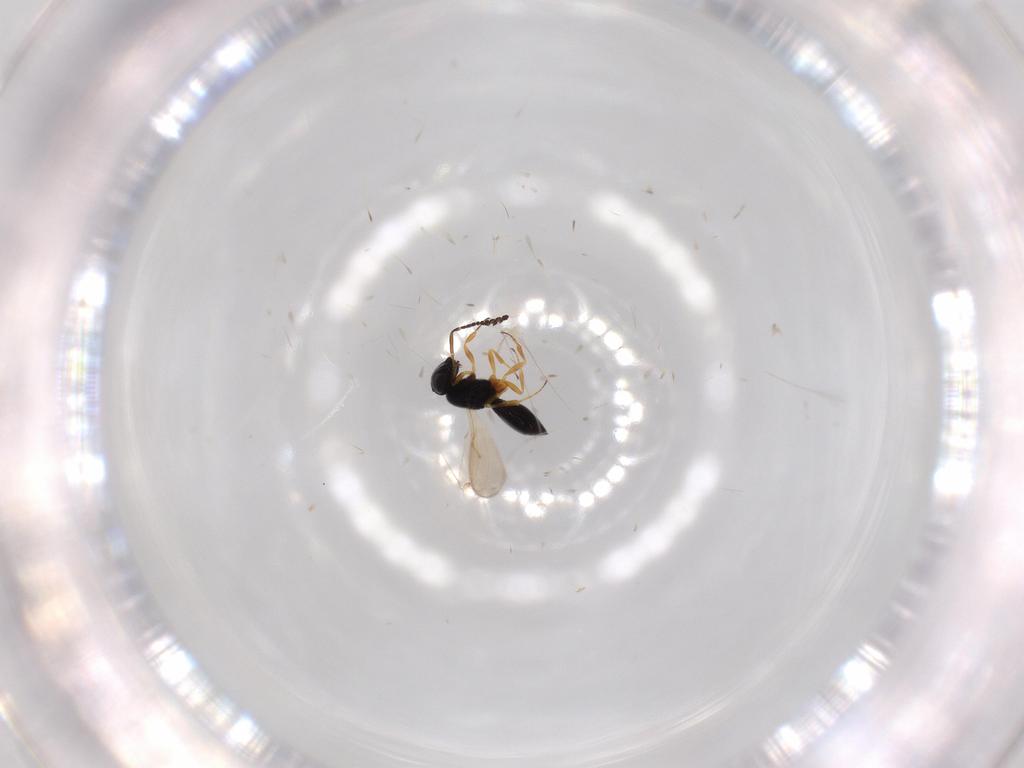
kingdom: Animalia
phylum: Arthropoda
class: Insecta
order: Hymenoptera
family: Scelionidae
